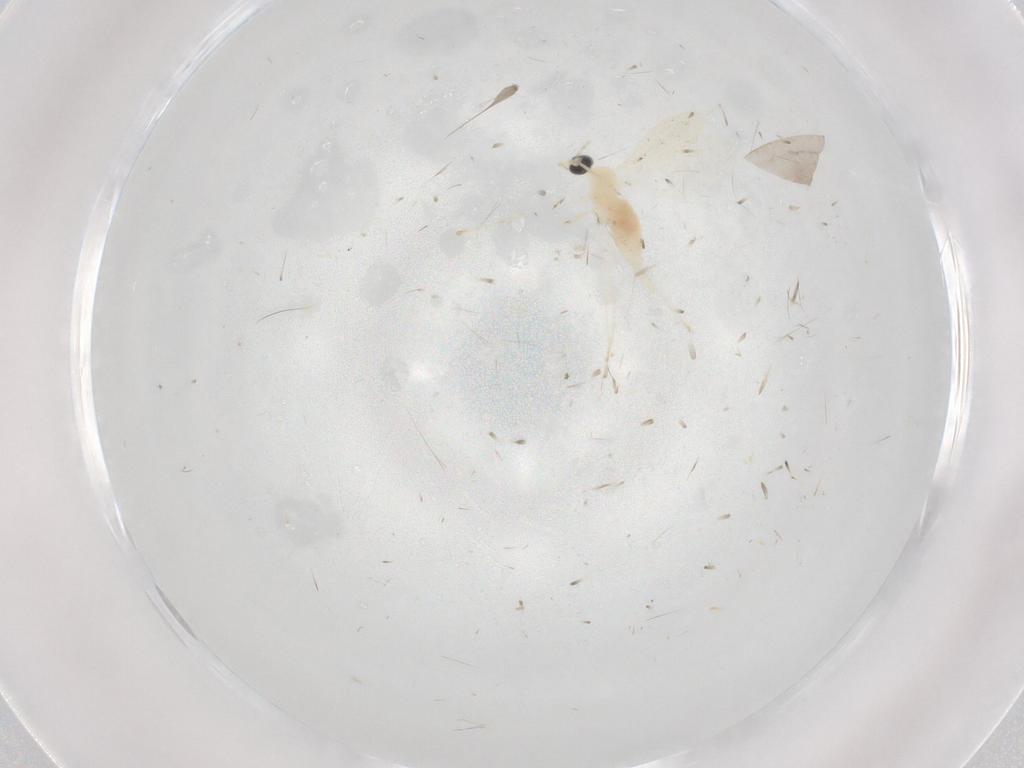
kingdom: Animalia
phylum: Arthropoda
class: Insecta
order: Diptera
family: Cecidomyiidae
